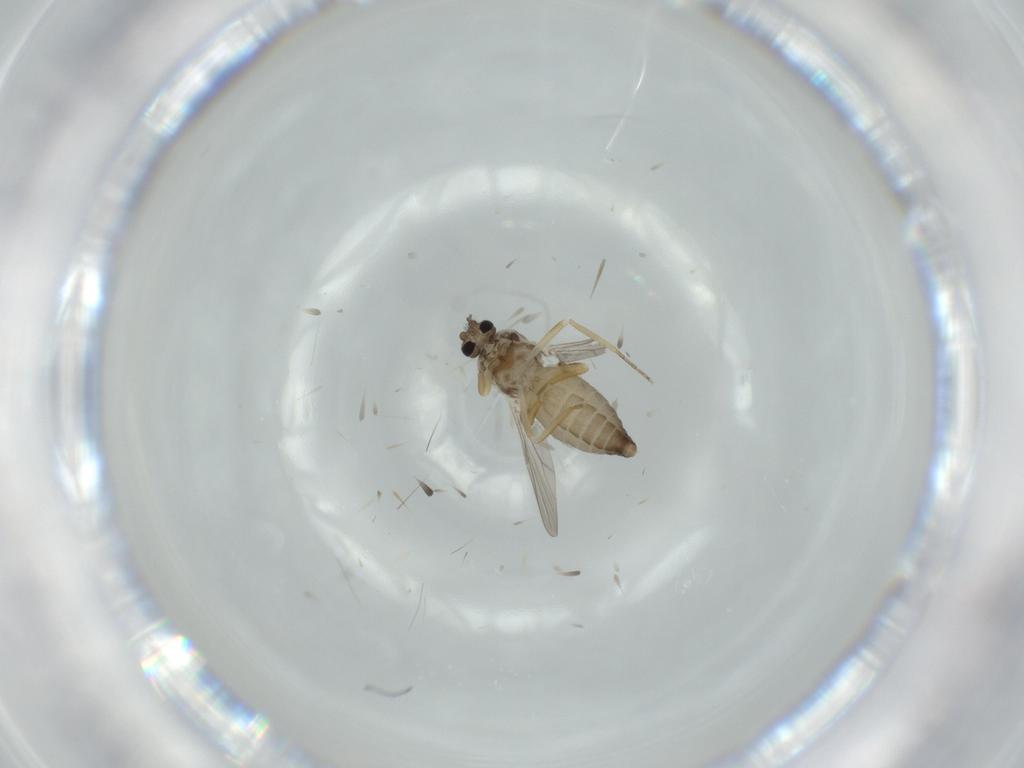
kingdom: Animalia
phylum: Arthropoda
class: Insecta
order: Diptera
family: Ceratopogonidae
